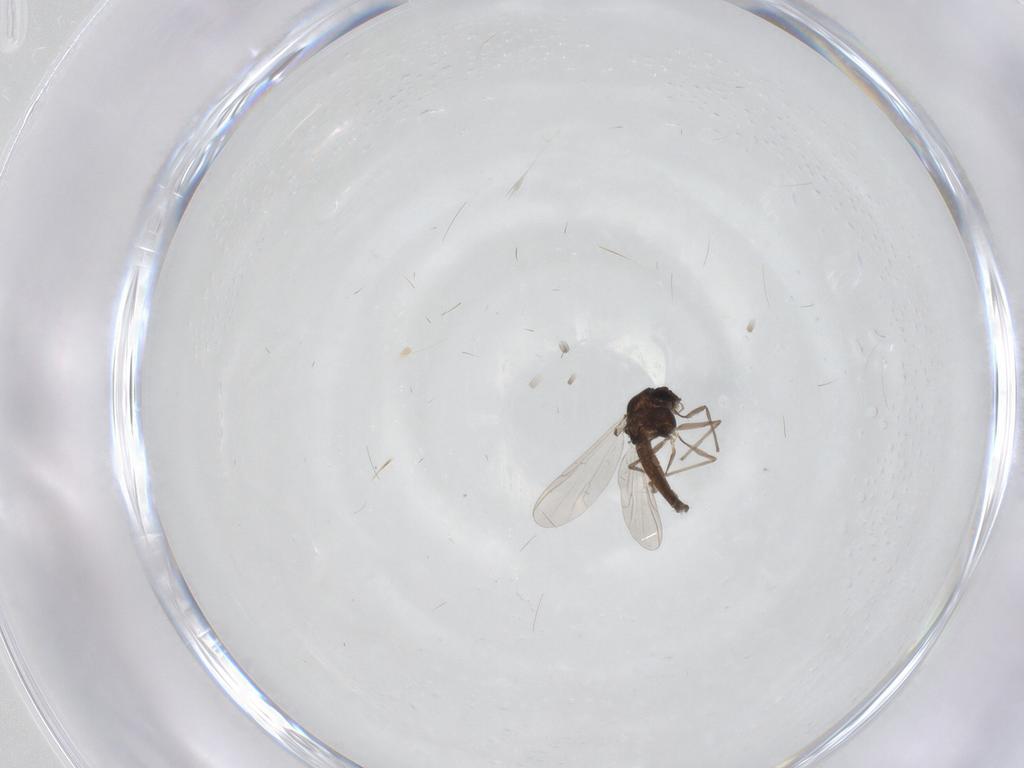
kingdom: Animalia
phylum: Arthropoda
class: Insecta
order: Diptera
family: Chironomidae
